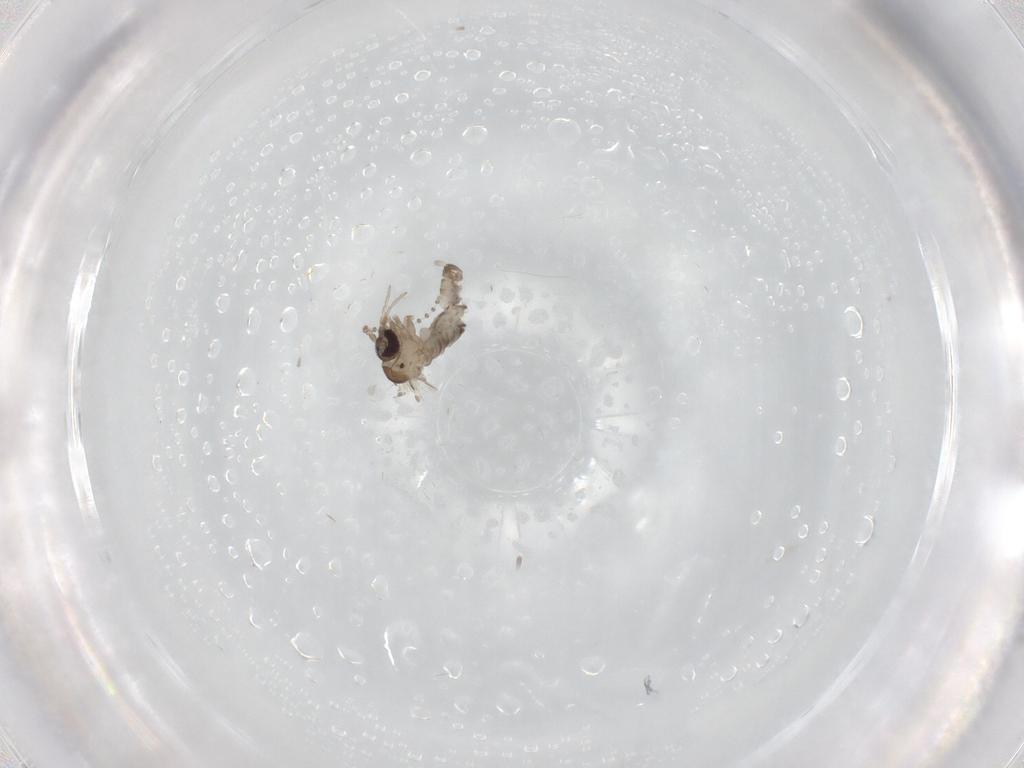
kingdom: Animalia
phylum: Arthropoda
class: Insecta
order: Diptera
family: Psychodidae
